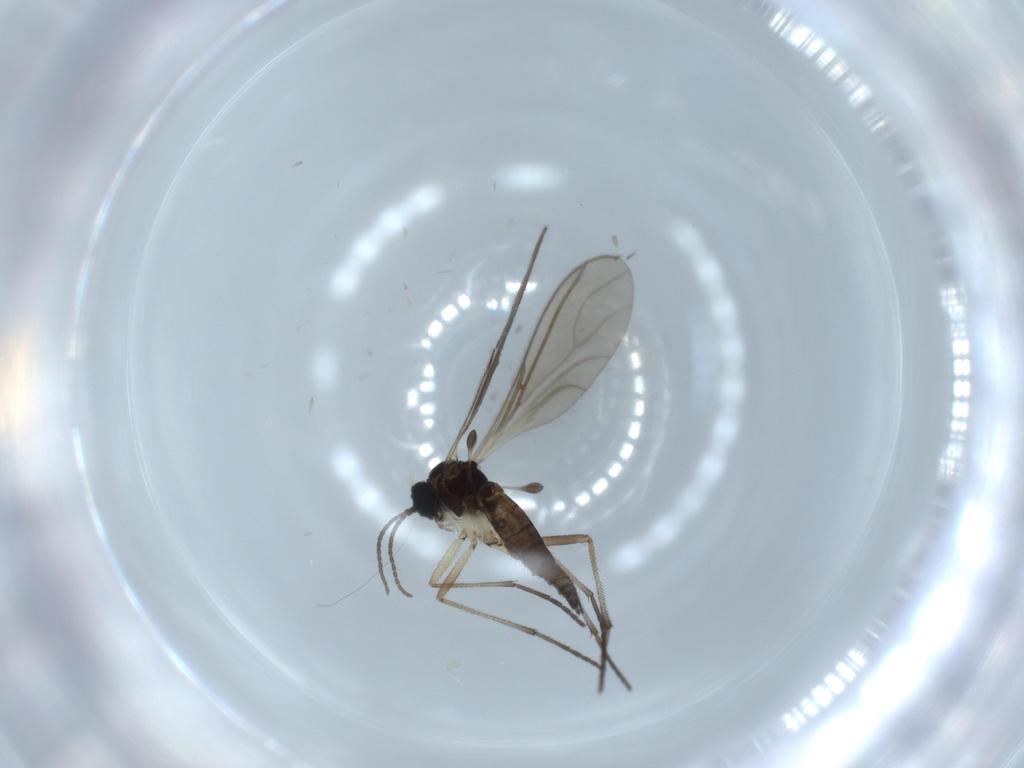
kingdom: Animalia
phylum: Arthropoda
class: Insecta
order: Diptera
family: Sciaridae
